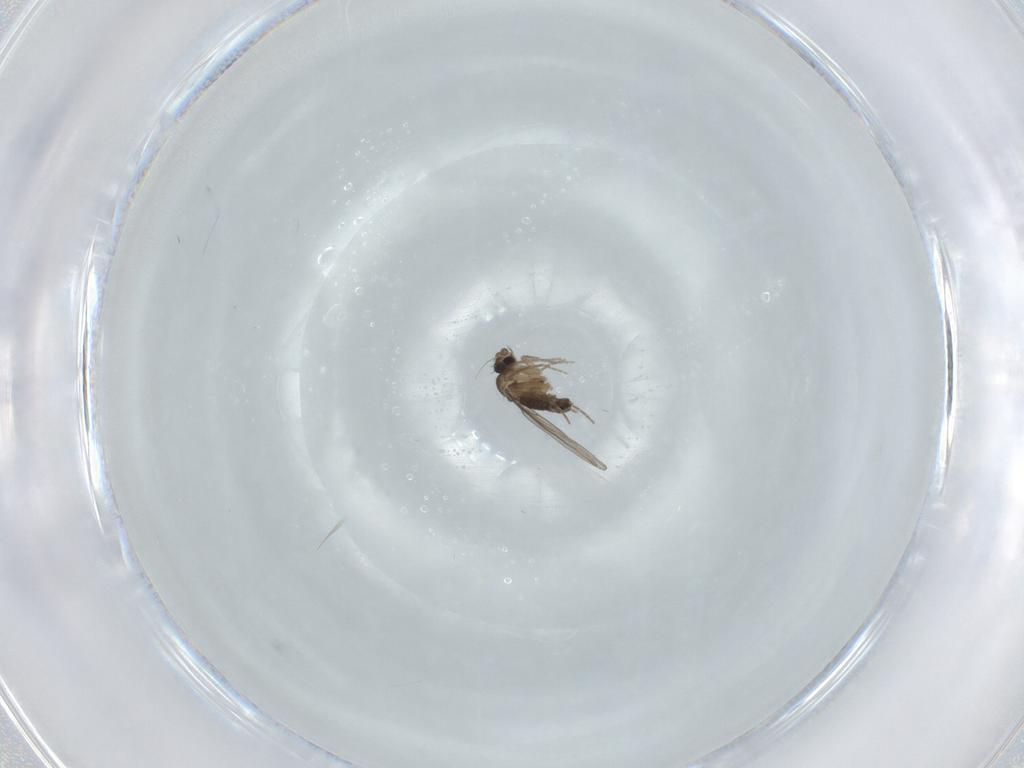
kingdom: Animalia
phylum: Arthropoda
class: Insecta
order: Diptera
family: Phoridae
